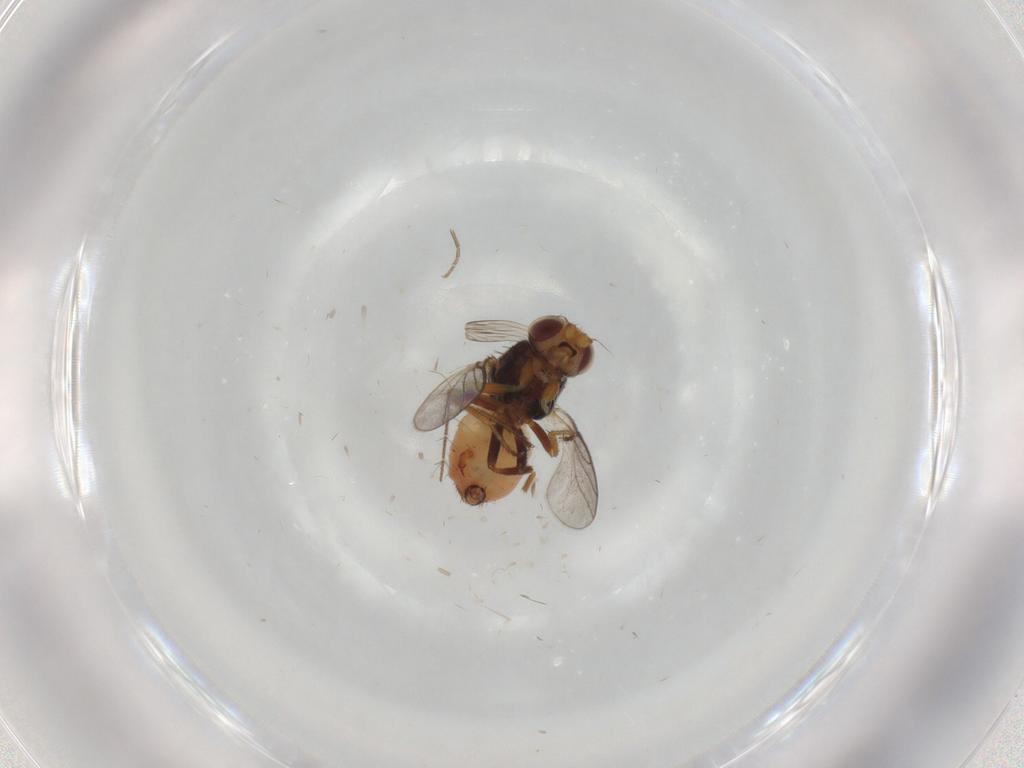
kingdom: Animalia
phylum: Arthropoda
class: Insecta
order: Diptera
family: Phoridae
